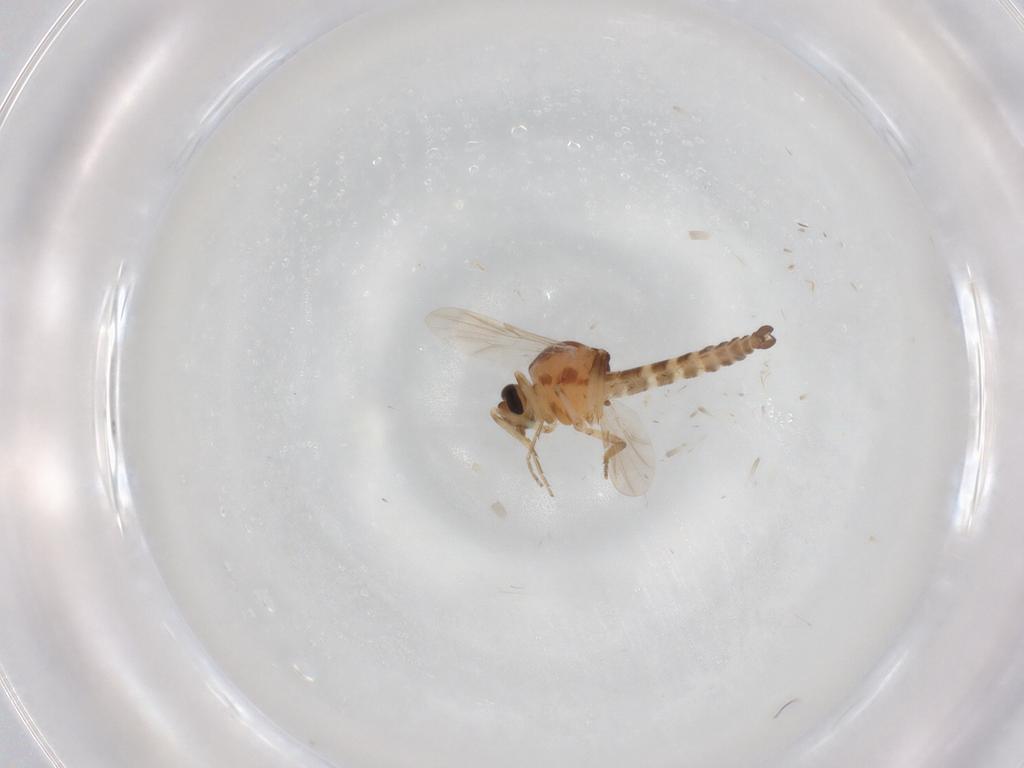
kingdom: Animalia
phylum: Arthropoda
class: Insecta
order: Diptera
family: Ceratopogonidae
